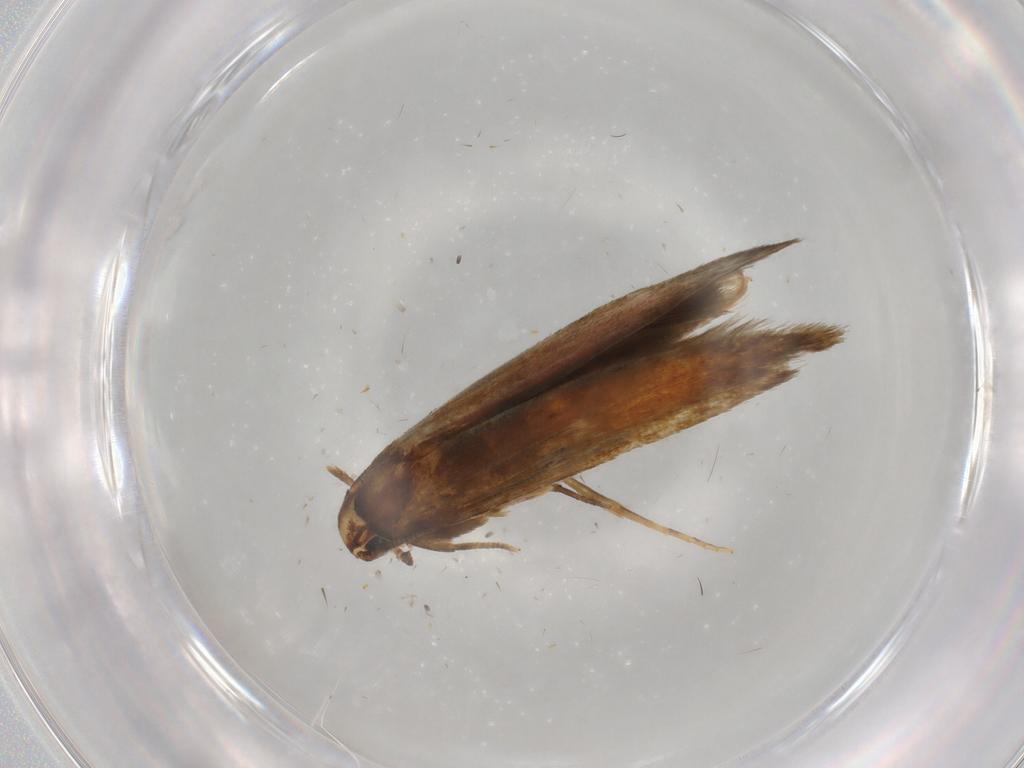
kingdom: Animalia
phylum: Arthropoda
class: Insecta
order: Lepidoptera
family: Tineidae
